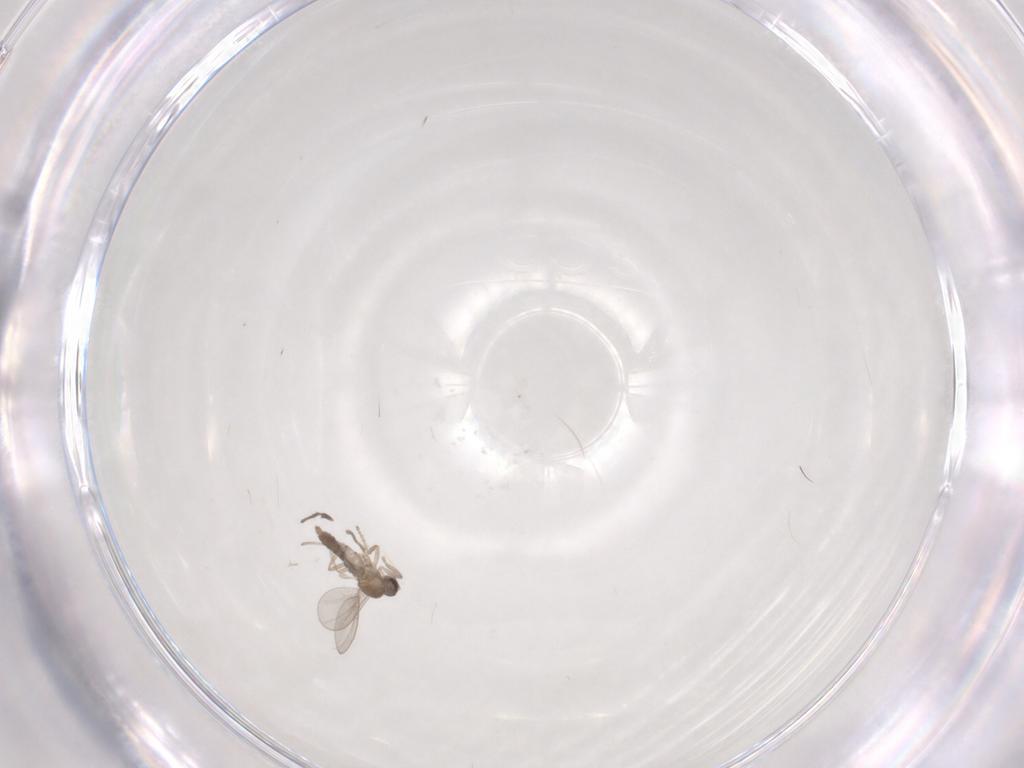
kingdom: Animalia
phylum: Arthropoda
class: Insecta
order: Diptera
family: Cecidomyiidae
